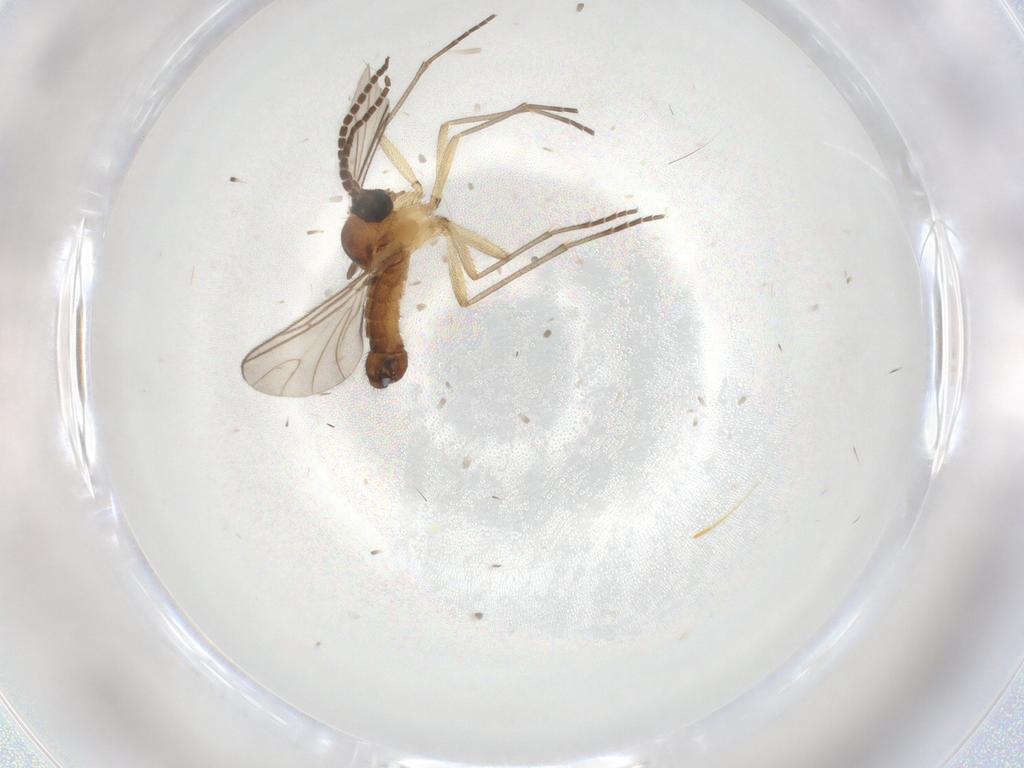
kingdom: Animalia
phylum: Arthropoda
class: Insecta
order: Diptera
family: Sciaridae
